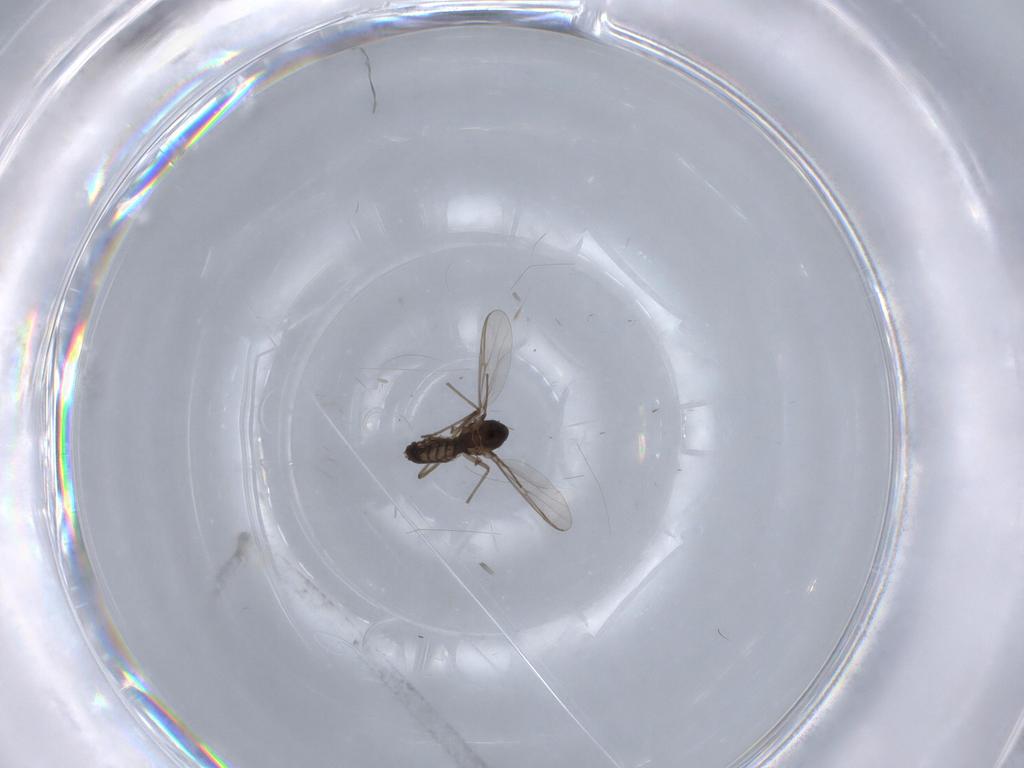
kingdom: Animalia
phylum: Arthropoda
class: Insecta
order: Diptera
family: Chironomidae
